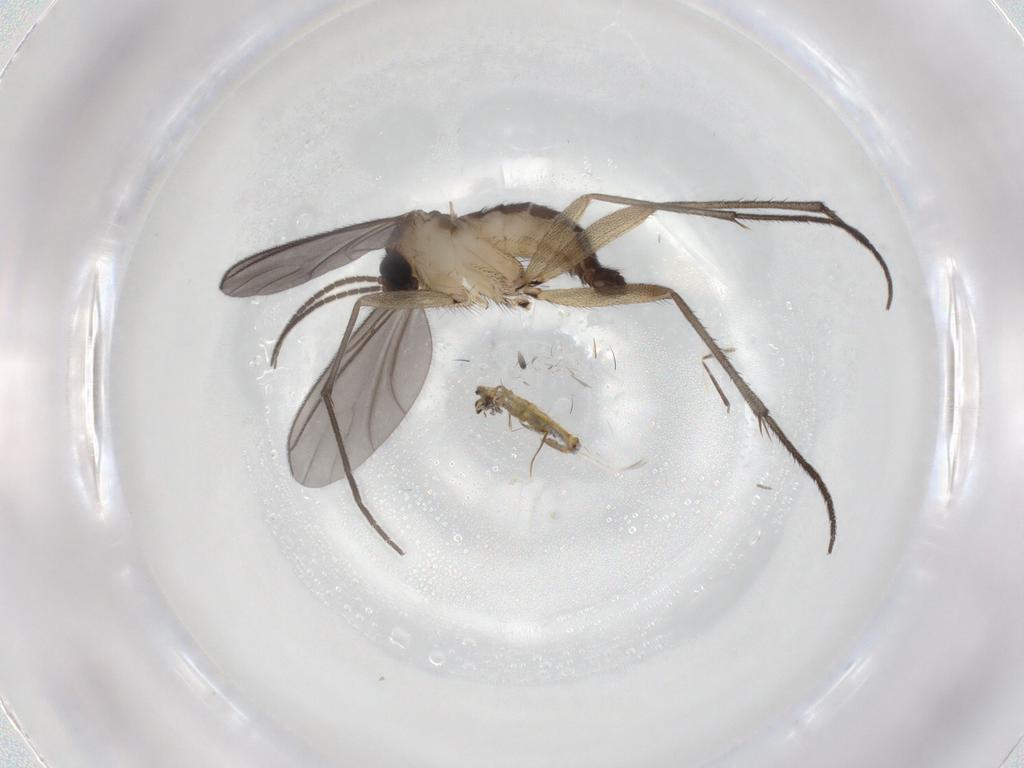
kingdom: Animalia
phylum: Arthropoda
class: Insecta
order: Diptera
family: Sciaridae
